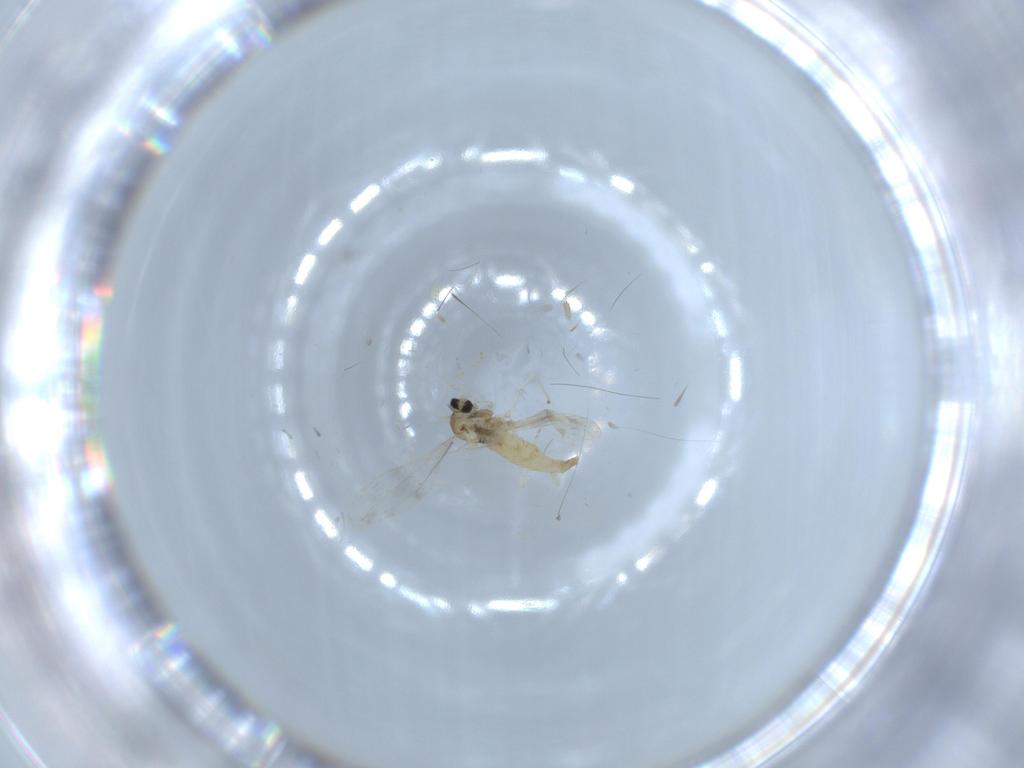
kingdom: Animalia
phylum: Arthropoda
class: Insecta
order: Diptera
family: Cecidomyiidae
